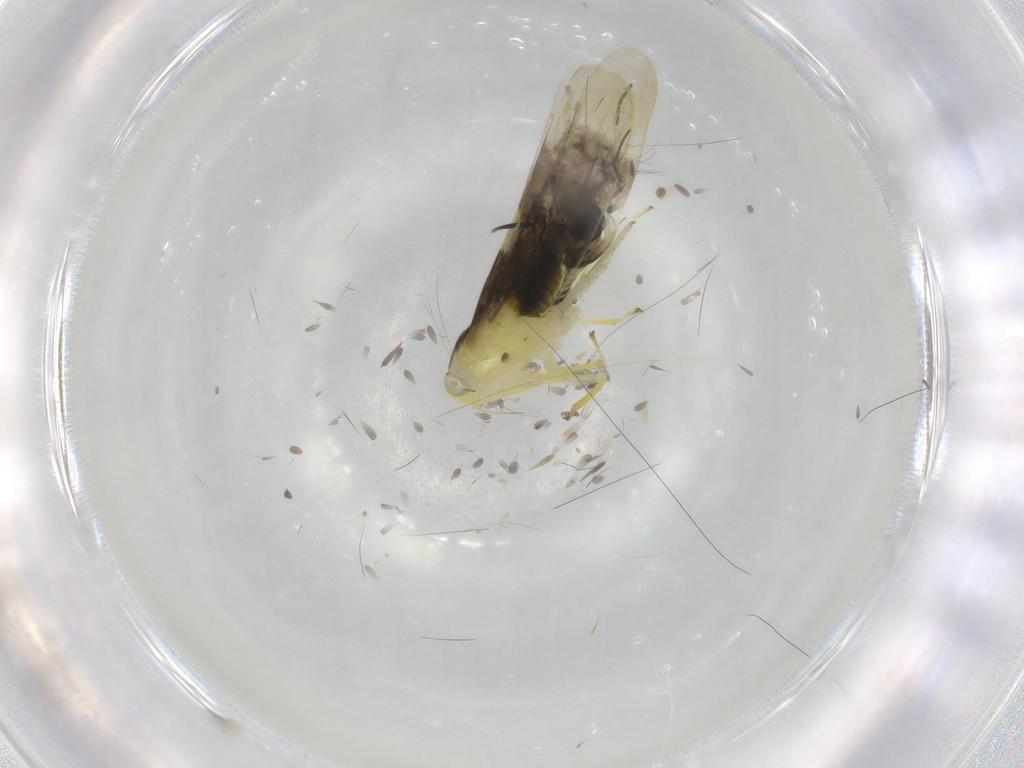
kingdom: Animalia
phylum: Arthropoda
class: Insecta
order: Hemiptera
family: Cicadellidae
